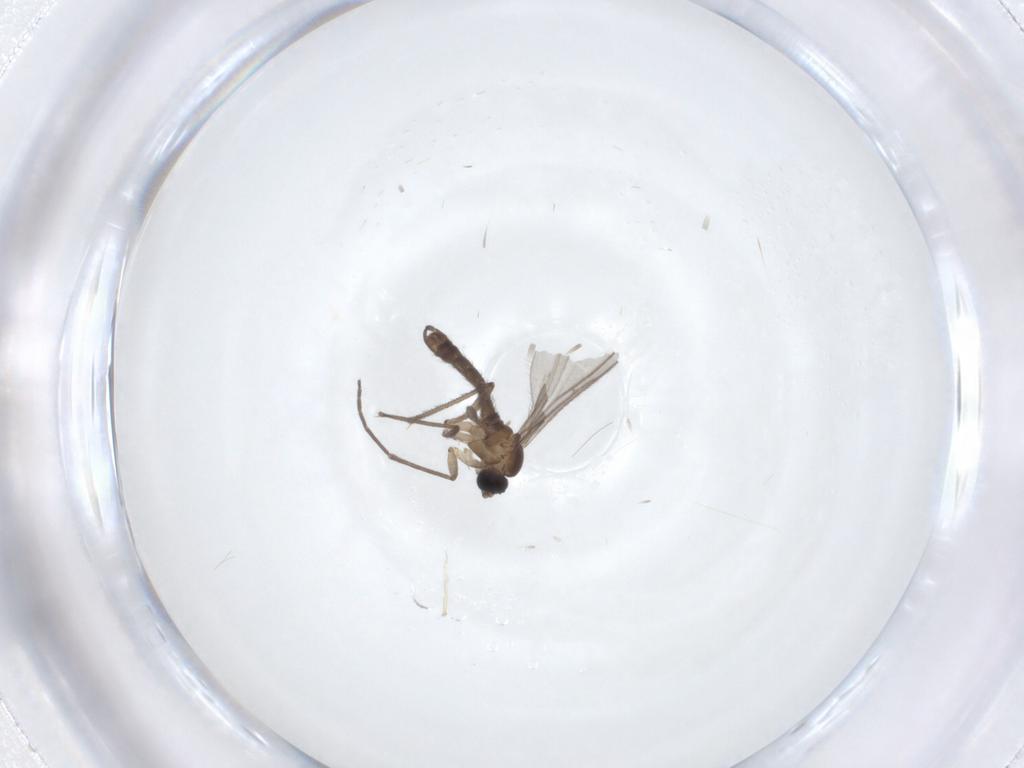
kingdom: Animalia
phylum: Arthropoda
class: Insecta
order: Diptera
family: Sciaridae
